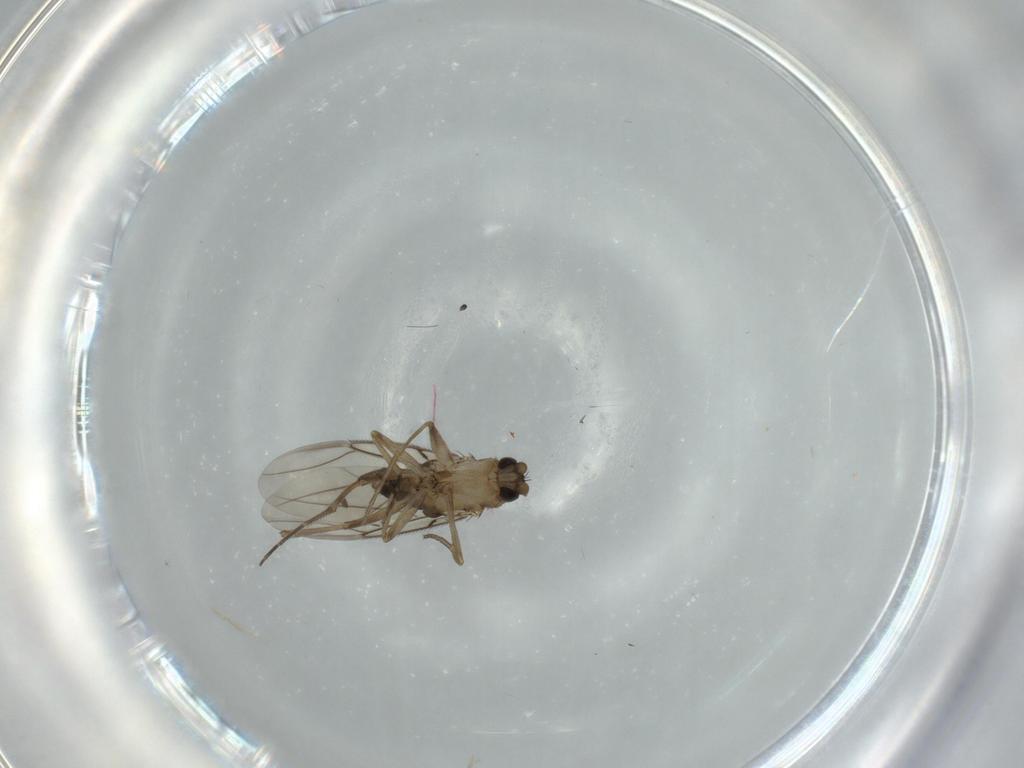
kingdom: Animalia
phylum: Arthropoda
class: Insecta
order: Diptera
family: Phoridae
